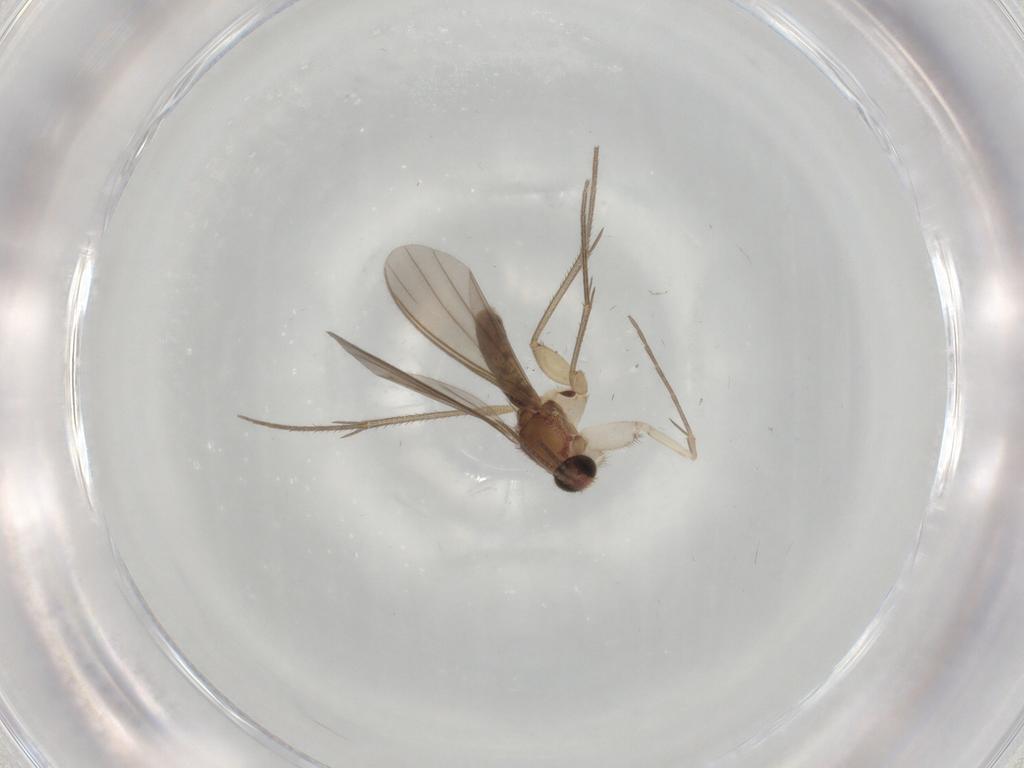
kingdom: Animalia
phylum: Arthropoda
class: Insecta
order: Diptera
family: Mycetophilidae
